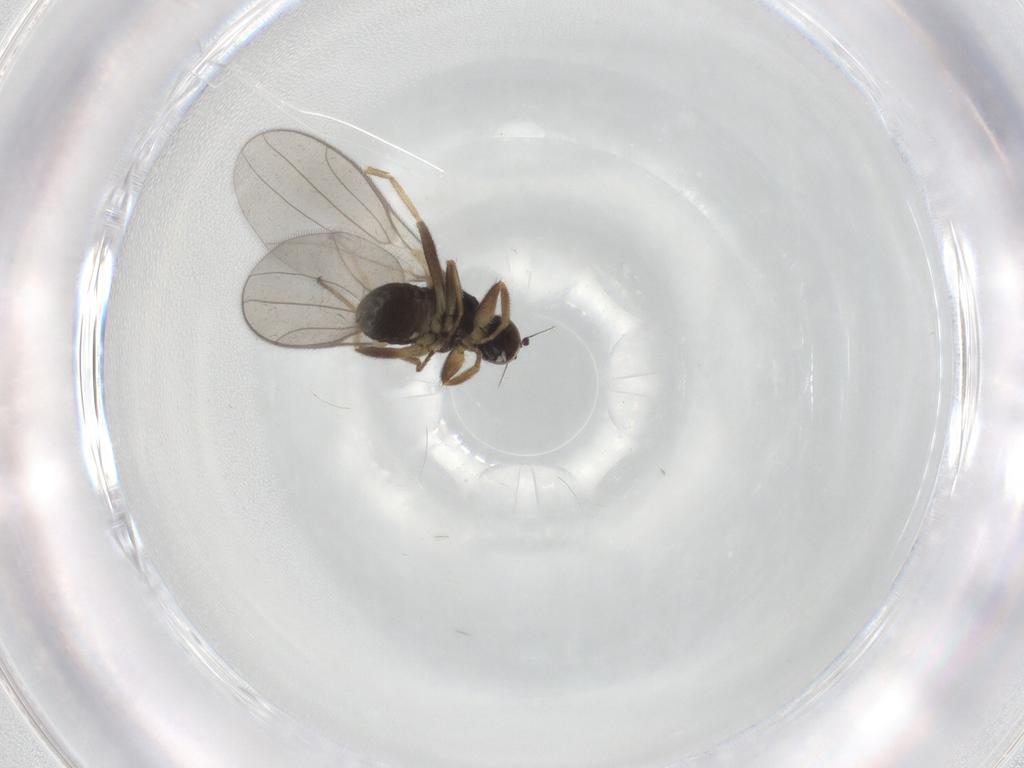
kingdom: Animalia
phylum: Arthropoda
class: Insecta
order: Diptera
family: Hybotidae
